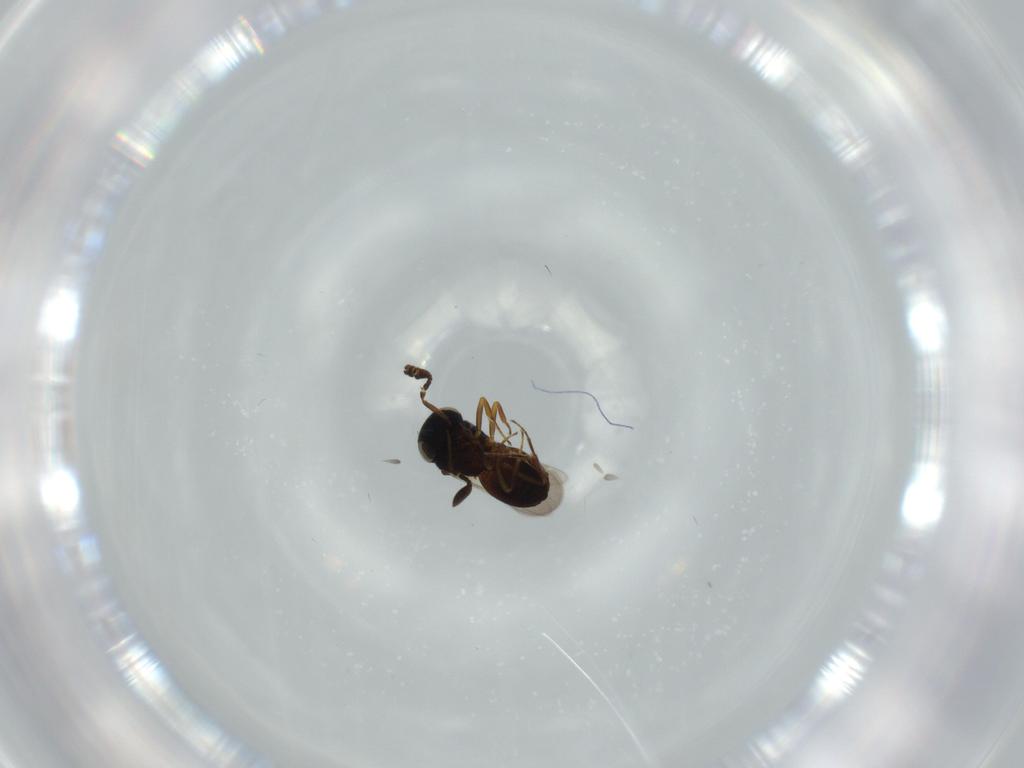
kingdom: Animalia
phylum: Arthropoda
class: Insecta
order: Hymenoptera
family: Scelionidae
